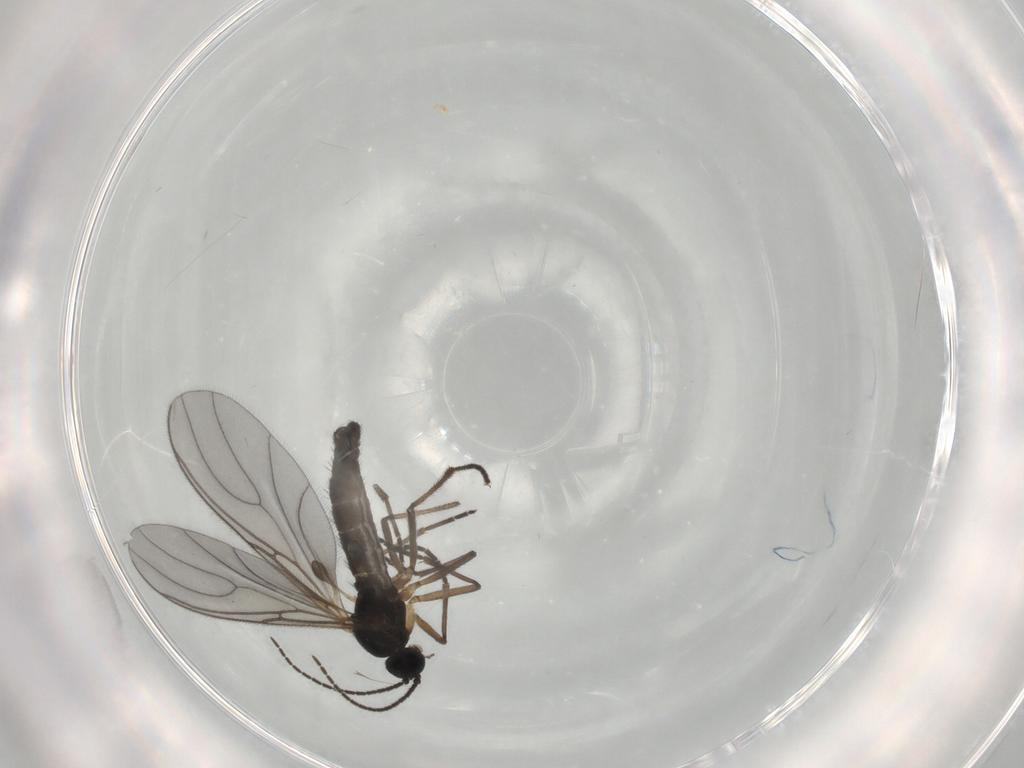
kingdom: Animalia
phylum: Arthropoda
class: Insecta
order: Diptera
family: Sciaridae
